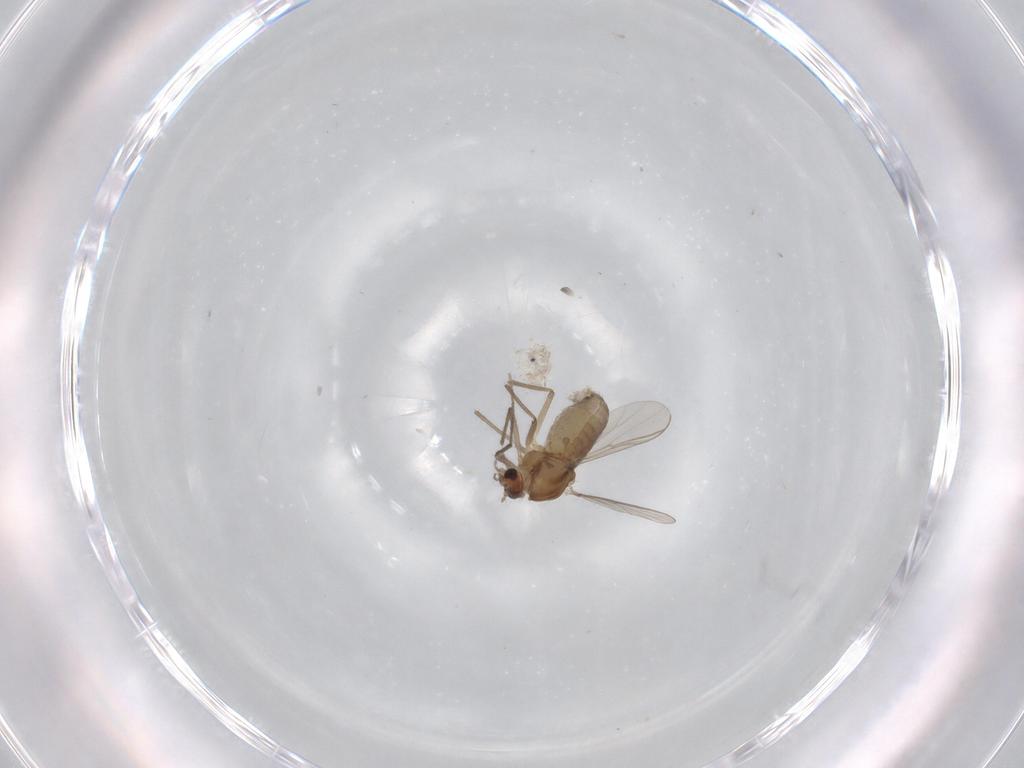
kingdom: Animalia
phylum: Arthropoda
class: Insecta
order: Diptera
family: Chironomidae
